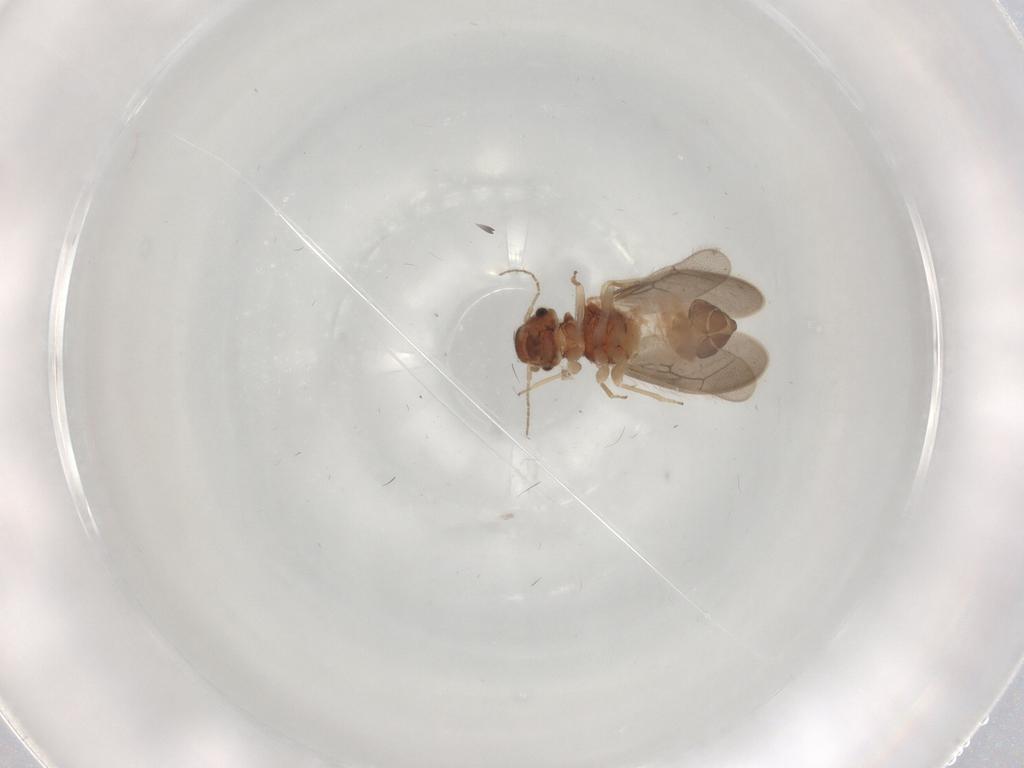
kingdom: Animalia
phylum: Arthropoda
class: Insecta
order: Psocodea
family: Archipsocidae
